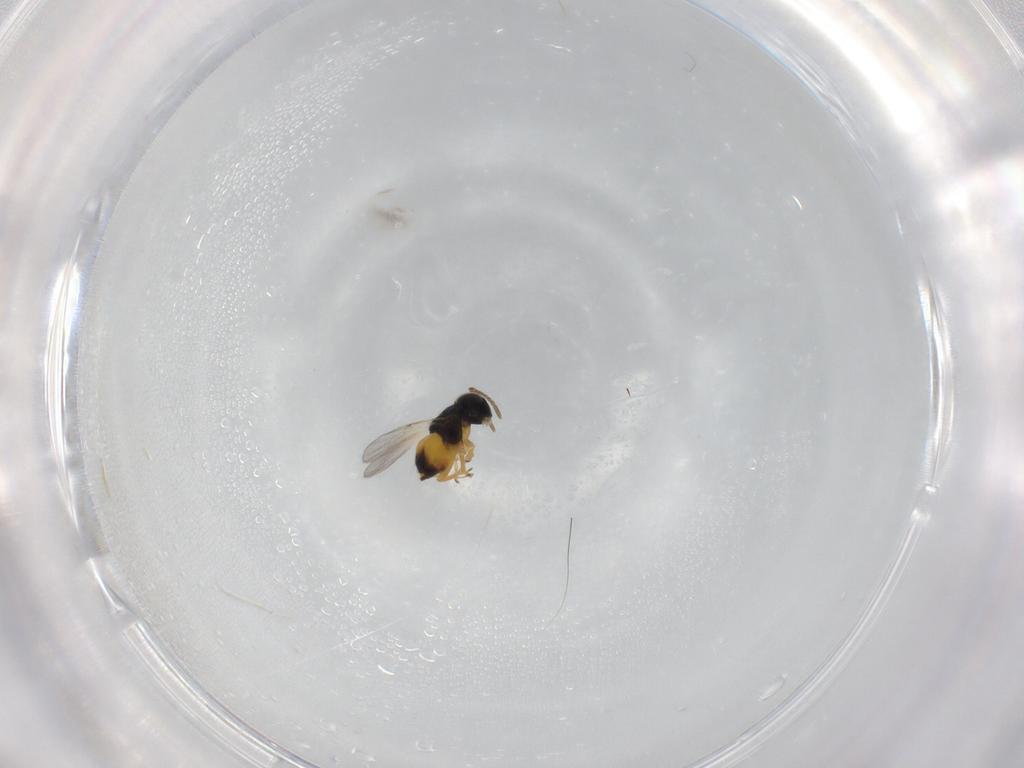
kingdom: Animalia
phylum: Arthropoda
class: Insecta
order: Hymenoptera
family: Encyrtidae
